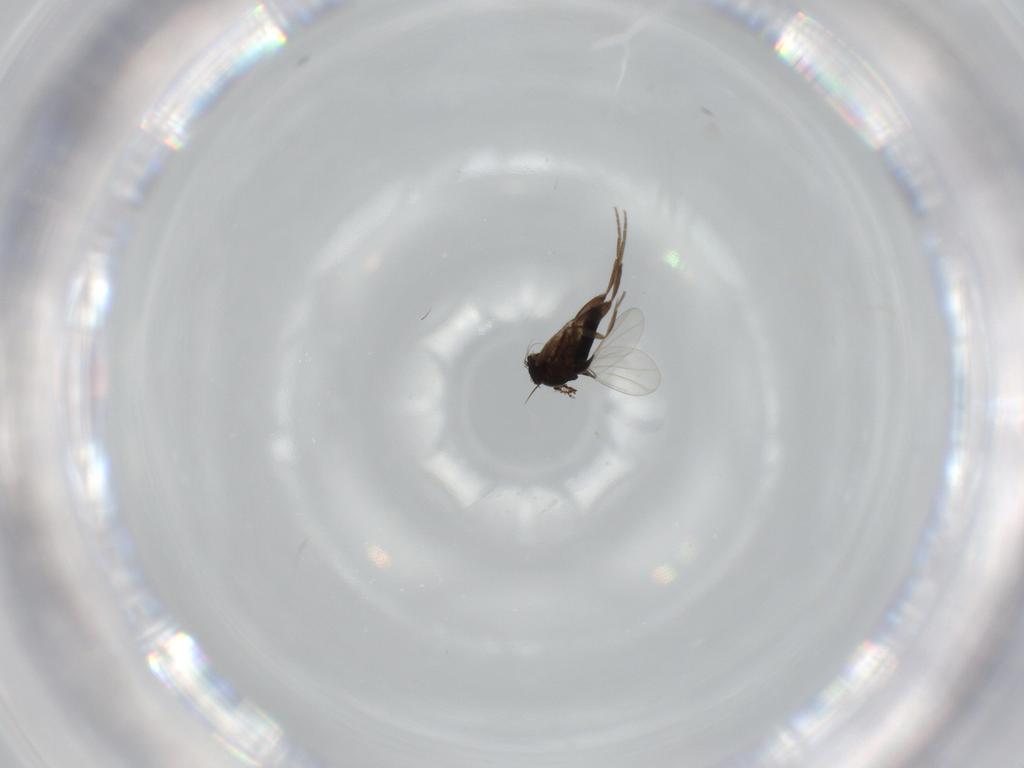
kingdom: Animalia
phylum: Arthropoda
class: Insecta
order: Diptera
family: Phoridae
